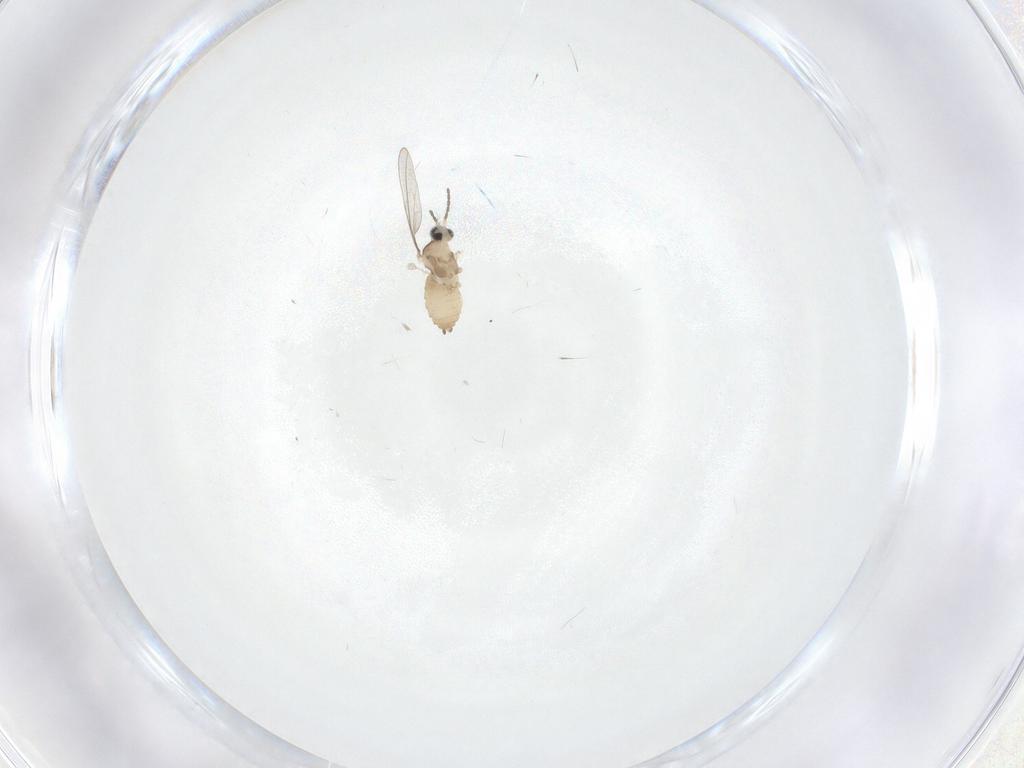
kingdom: Animalia
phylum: Arthropoda
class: Insecta
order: Diptera
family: Cecidomyiidae
